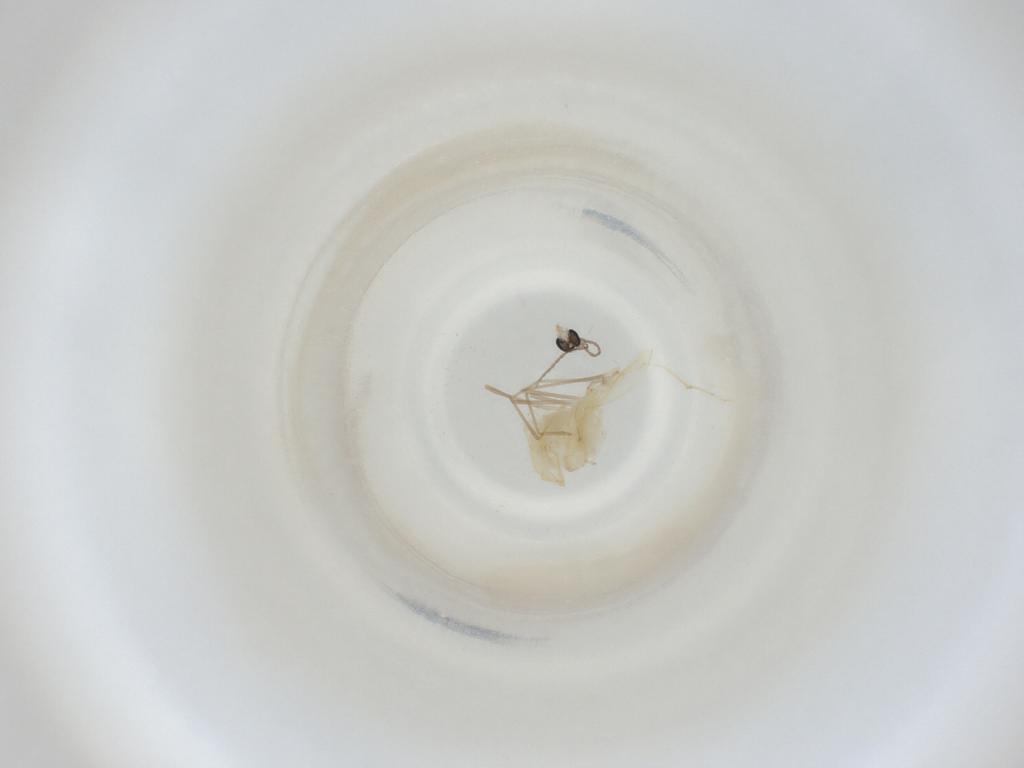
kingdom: Animalia
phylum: Arthropoda
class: Insecta
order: Diptera
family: Cecidomyiidae
